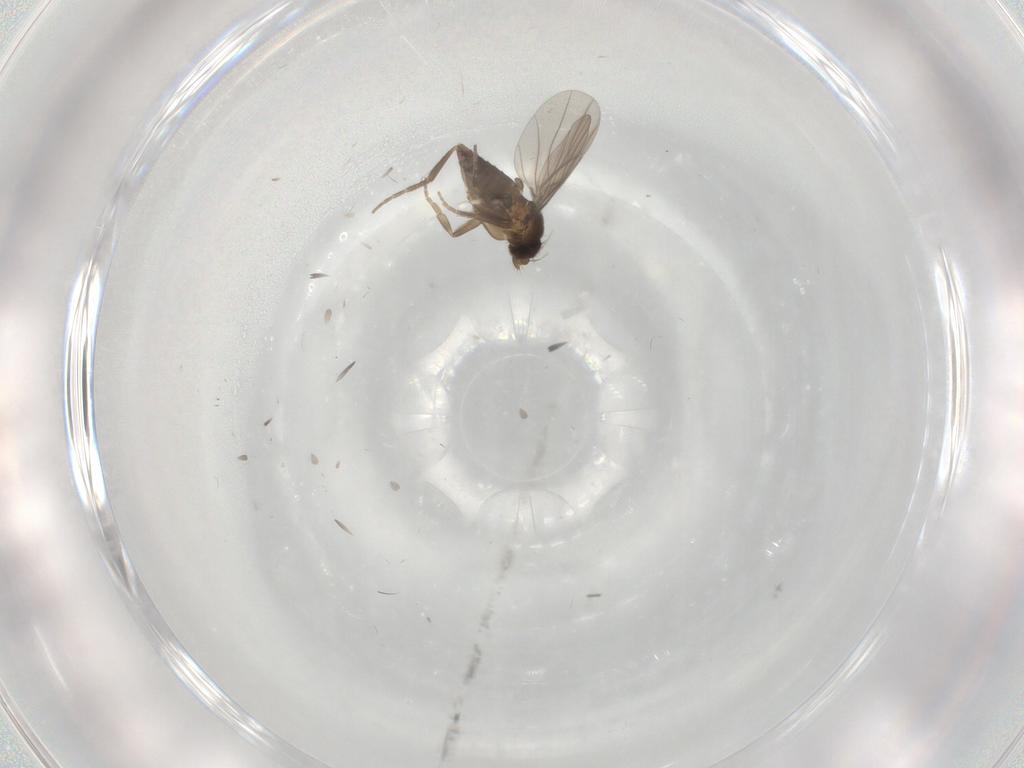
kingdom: Animalia
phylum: Arthropoda
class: Insecta
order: Diptera
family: Phoridae
